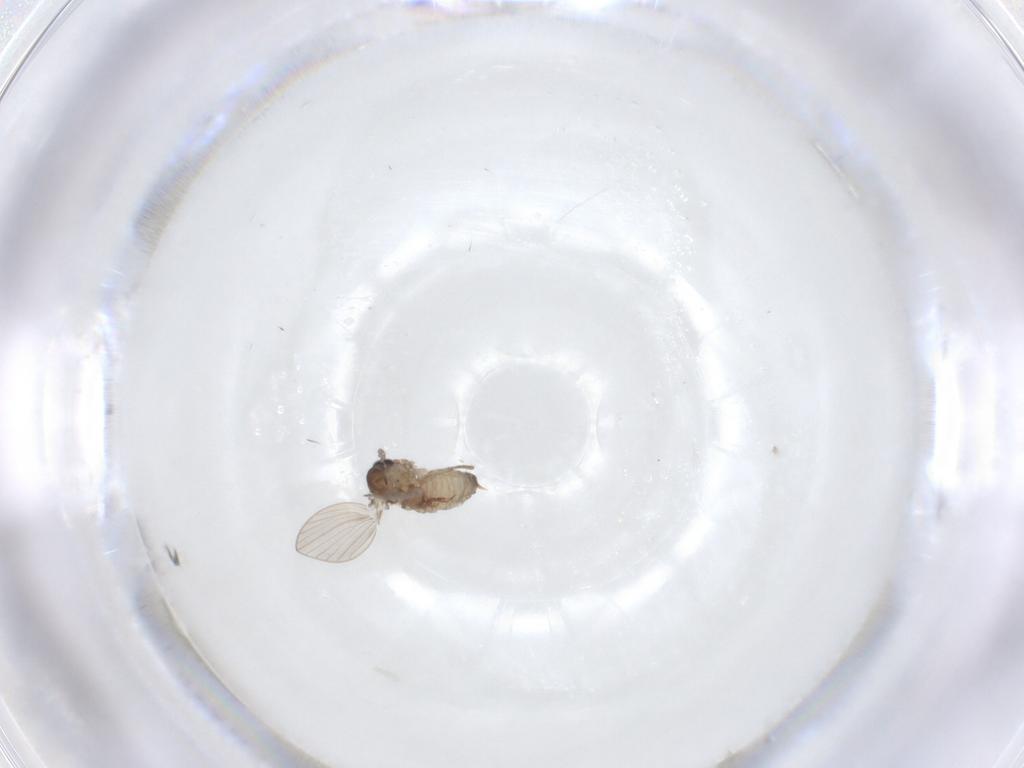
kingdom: Animalia
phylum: Arthropoda
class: Insecta
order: Diptera
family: Psychodidae
